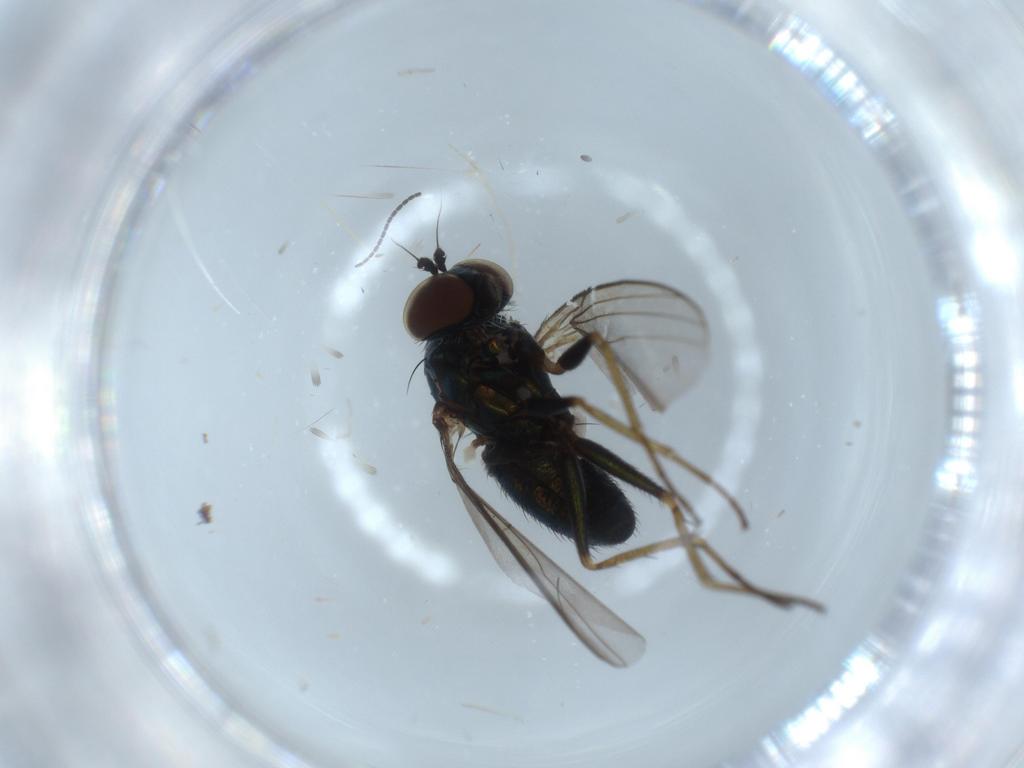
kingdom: Animalia
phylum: Arthropoda
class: Insecta
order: Diptera
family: Dolichopodidae
